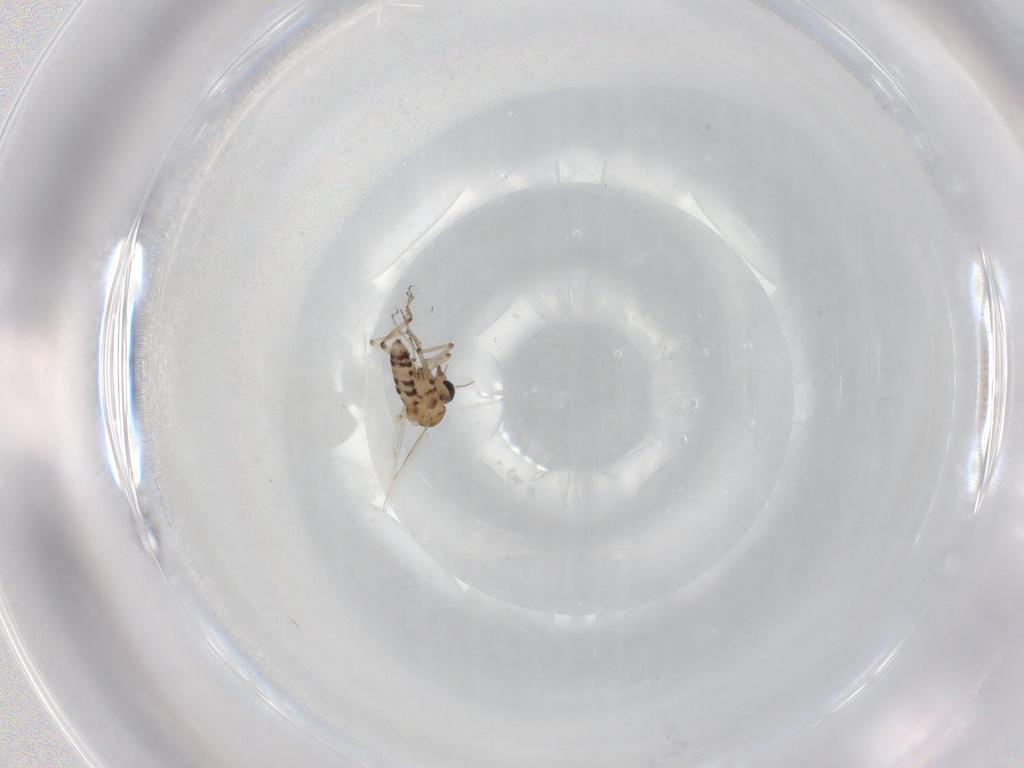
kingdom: Animalia
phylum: Arthropoda
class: Insecta
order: Diptera
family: Ceratopogonidae
